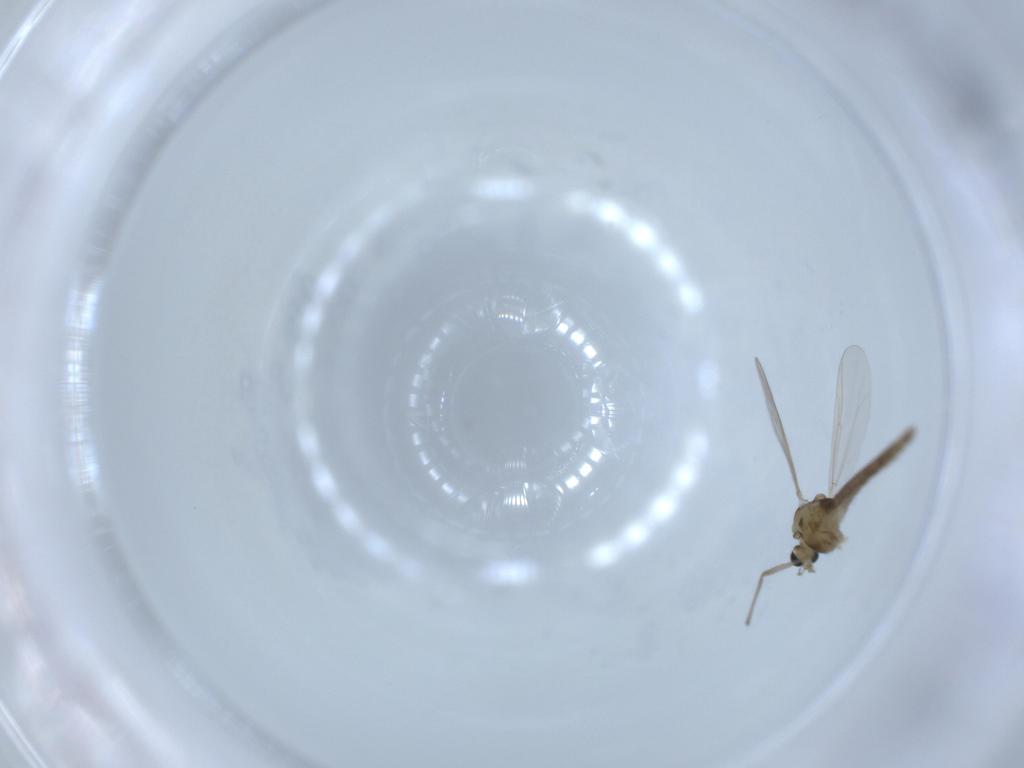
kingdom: Animalia
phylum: Arthropoda
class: Insecta
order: Diptera
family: Chironomidae
